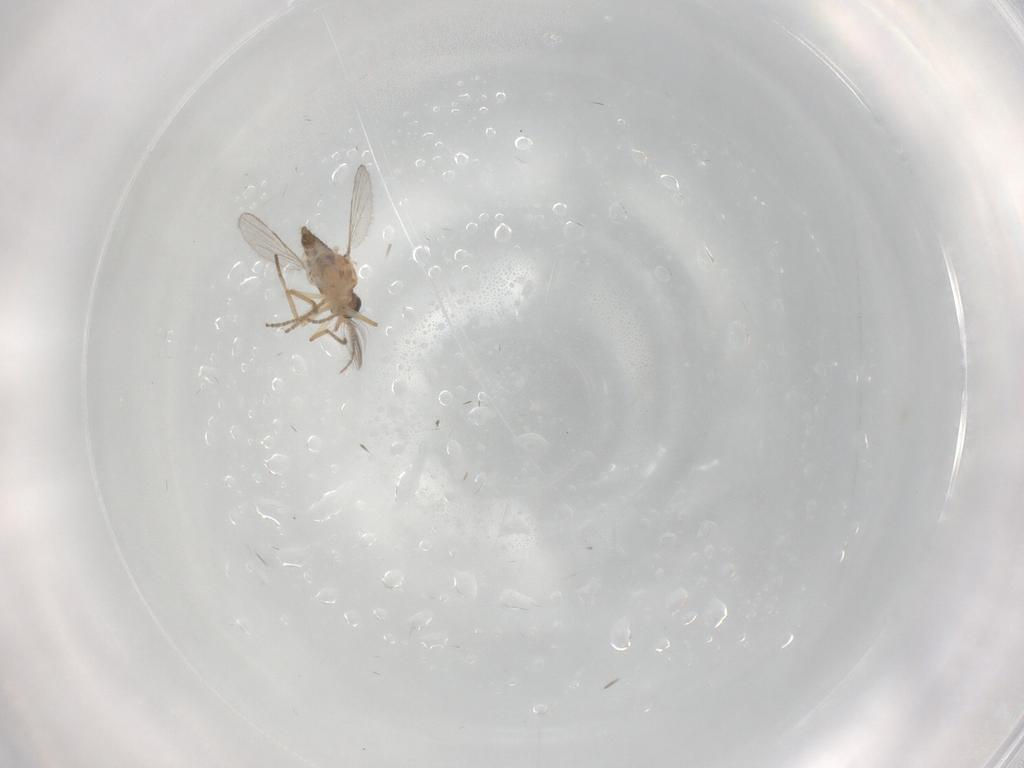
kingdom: Animalia
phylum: Arthropoda
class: Insecta
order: Diptera
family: Ceratopogonidae
